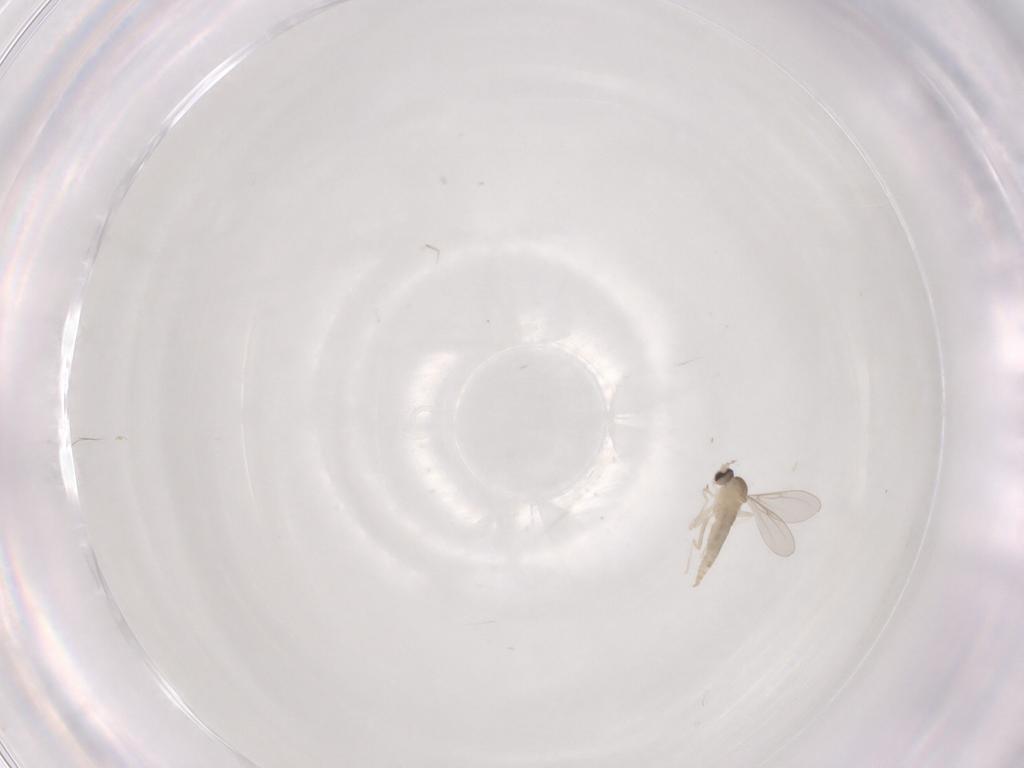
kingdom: Animalia
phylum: Arthropoda
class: Insecta
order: Diptera
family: Cecidomyiidae
